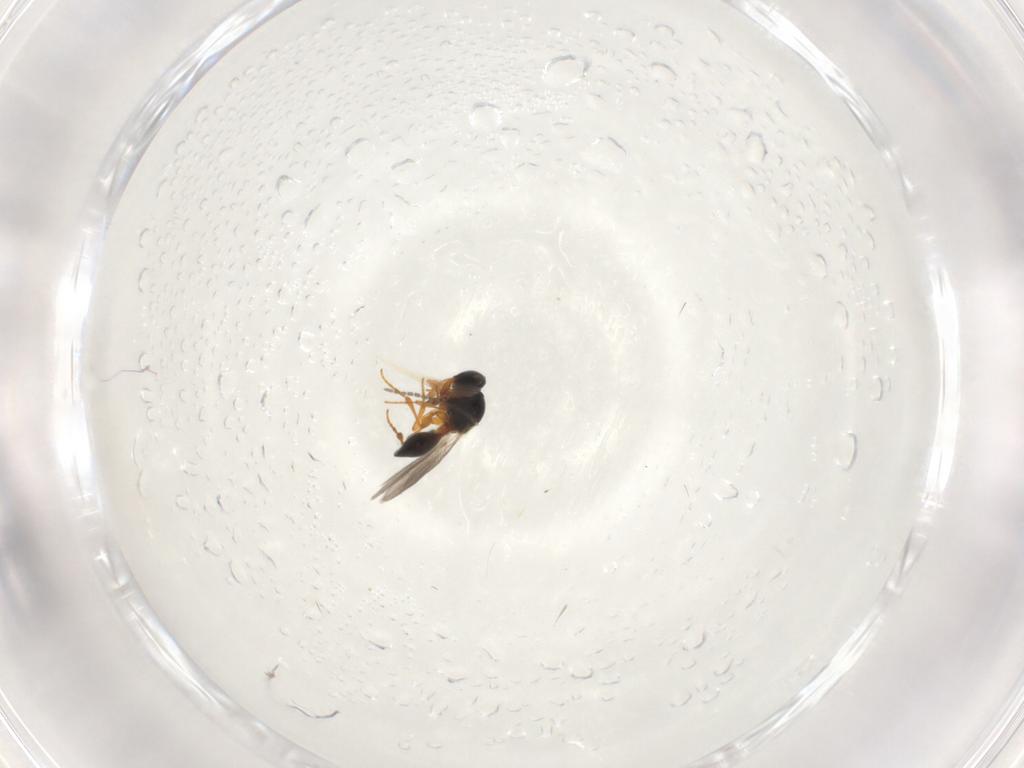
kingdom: Animalia
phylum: Arthropoda
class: Insecta
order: Hymenoptera
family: Platygastridae
